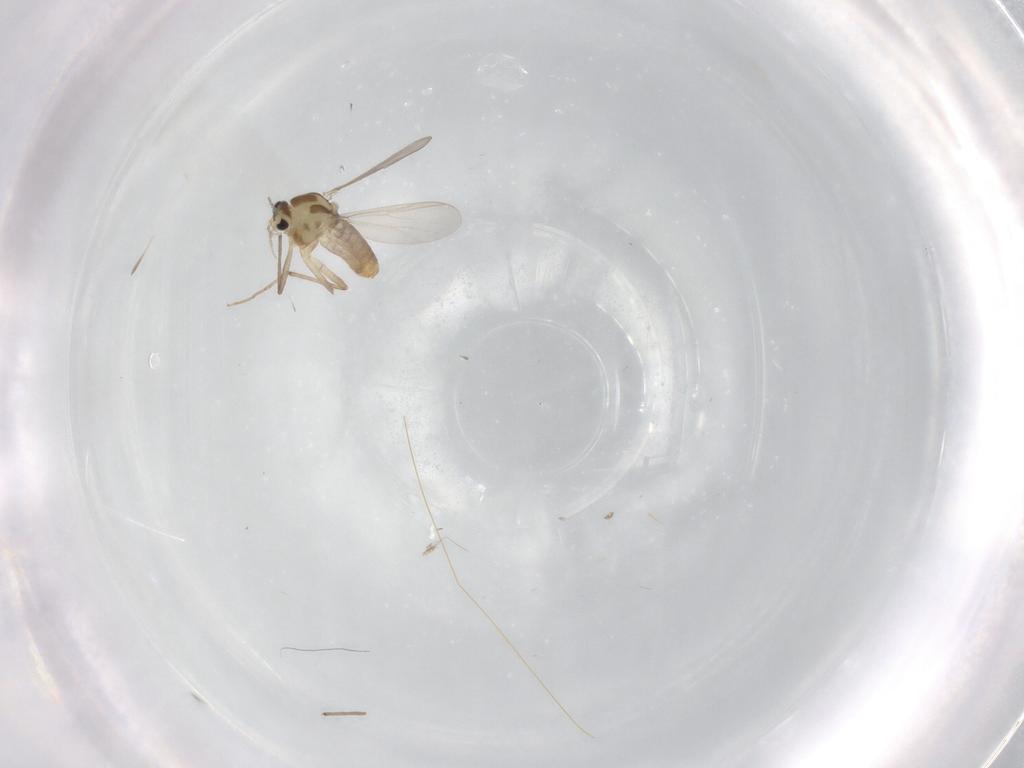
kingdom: Animalia
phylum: Arthropoda
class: Insecta
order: Diptera
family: Chironomidae
